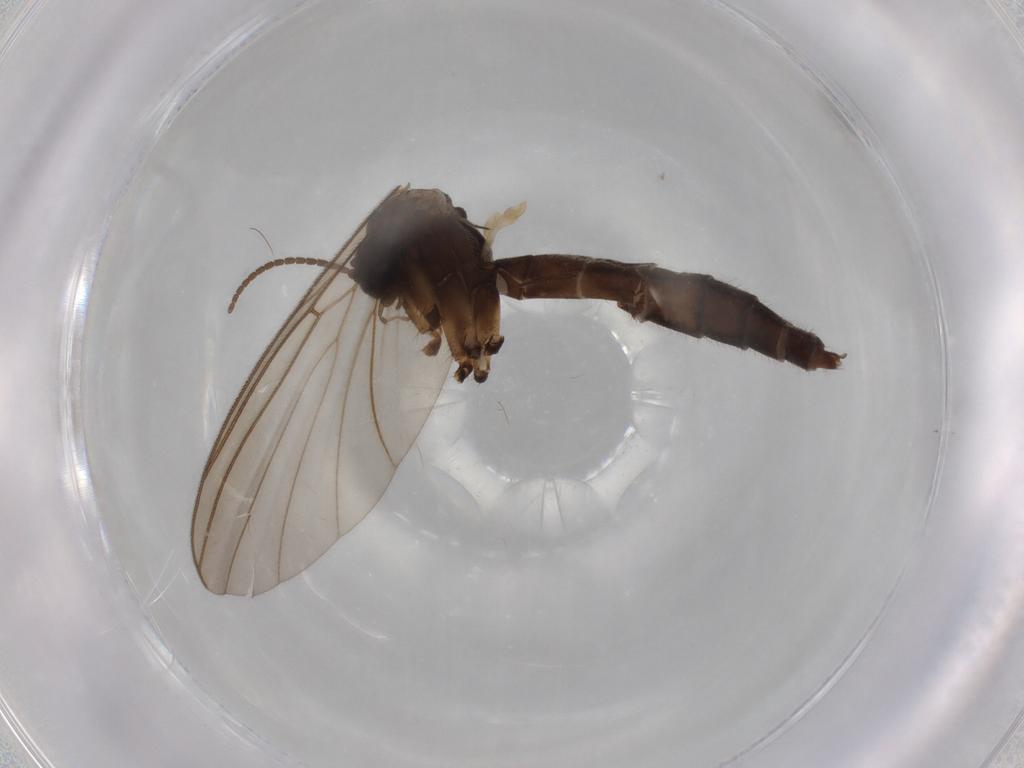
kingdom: Animalia
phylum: Arthropoda
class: Insecta
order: Diptera
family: Mycetophilidae
